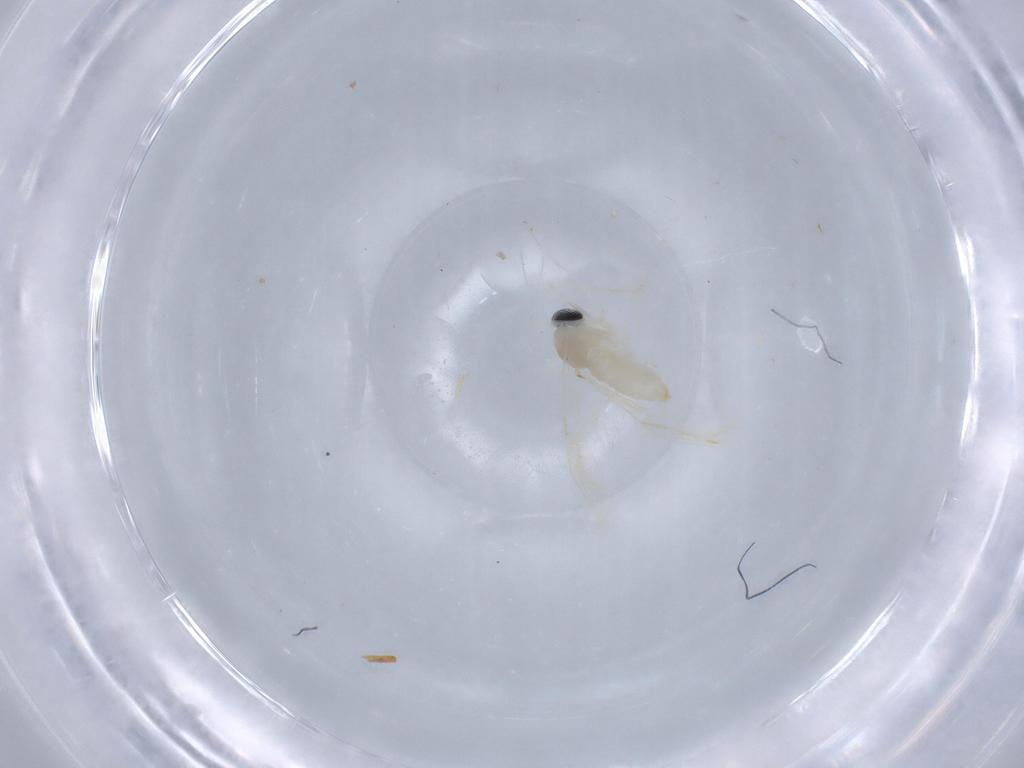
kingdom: Animalia
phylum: Arthropoda
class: Insecta
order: Diptera
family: Cecidomyiidae
